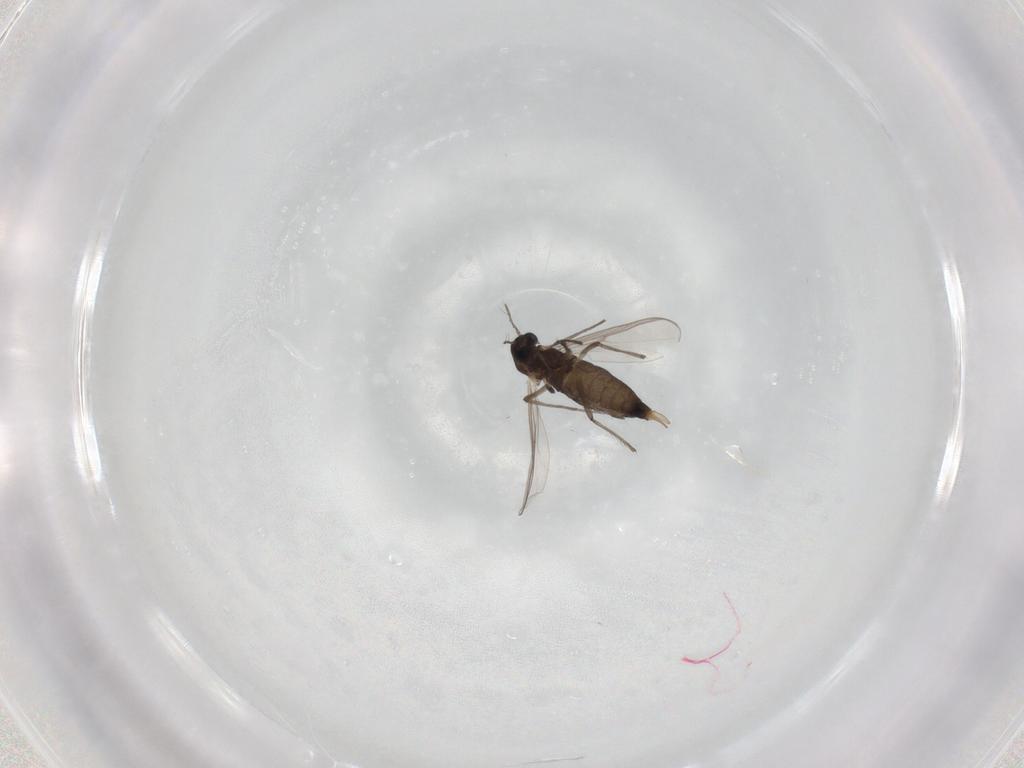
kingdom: Animalia
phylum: Arthropoda
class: Insecta
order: Diptera
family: Chironomidae
